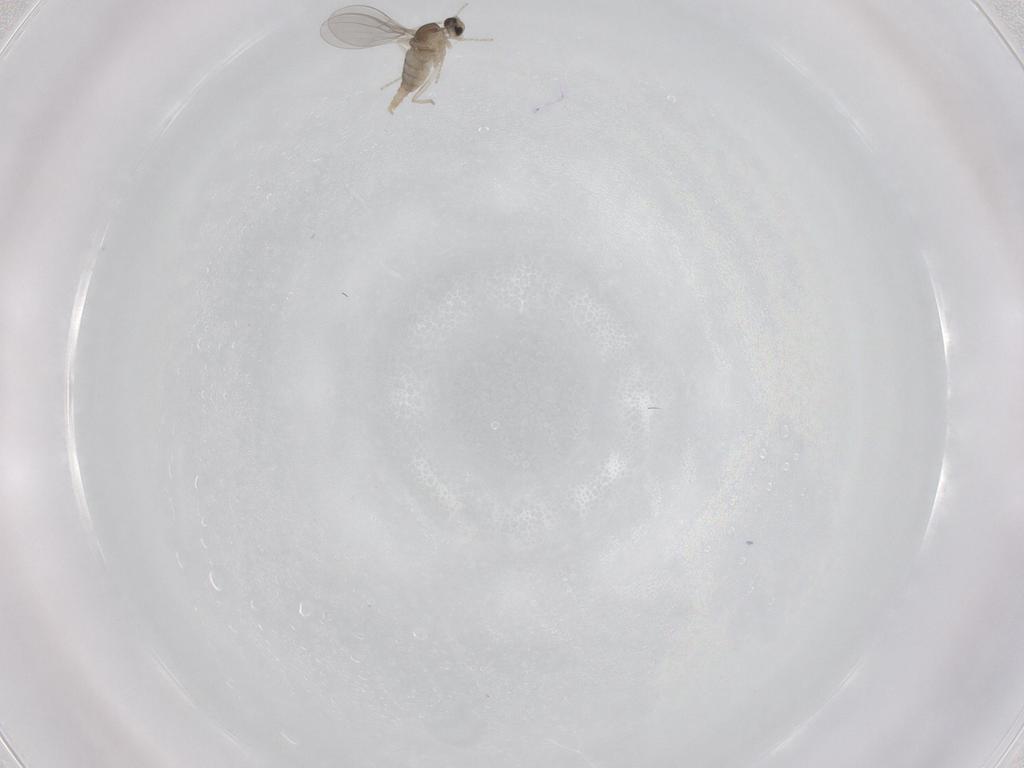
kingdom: Animalia
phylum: Arthropoda
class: Insecta
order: Diptera
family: Cecidomyiidae
